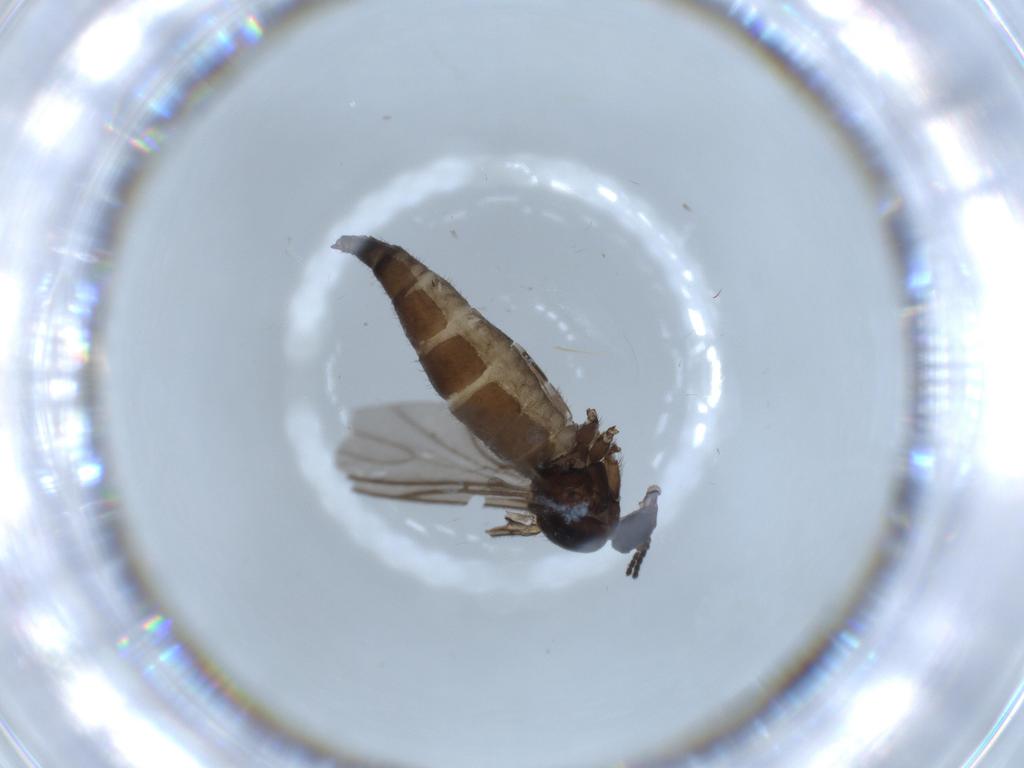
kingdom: Animalia
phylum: Arthropoda
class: Insecta
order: Diptera
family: Sciaridae
